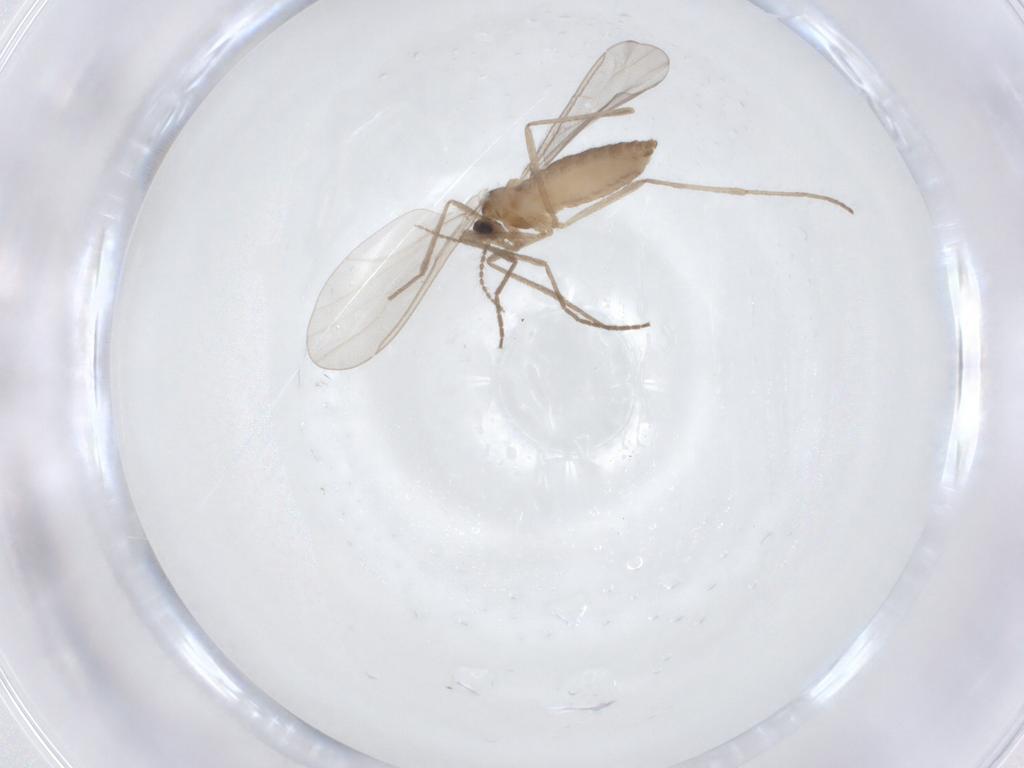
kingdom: Animalia
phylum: Arthropoda
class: Insecta
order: Diptera
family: Cecidomyiidae
